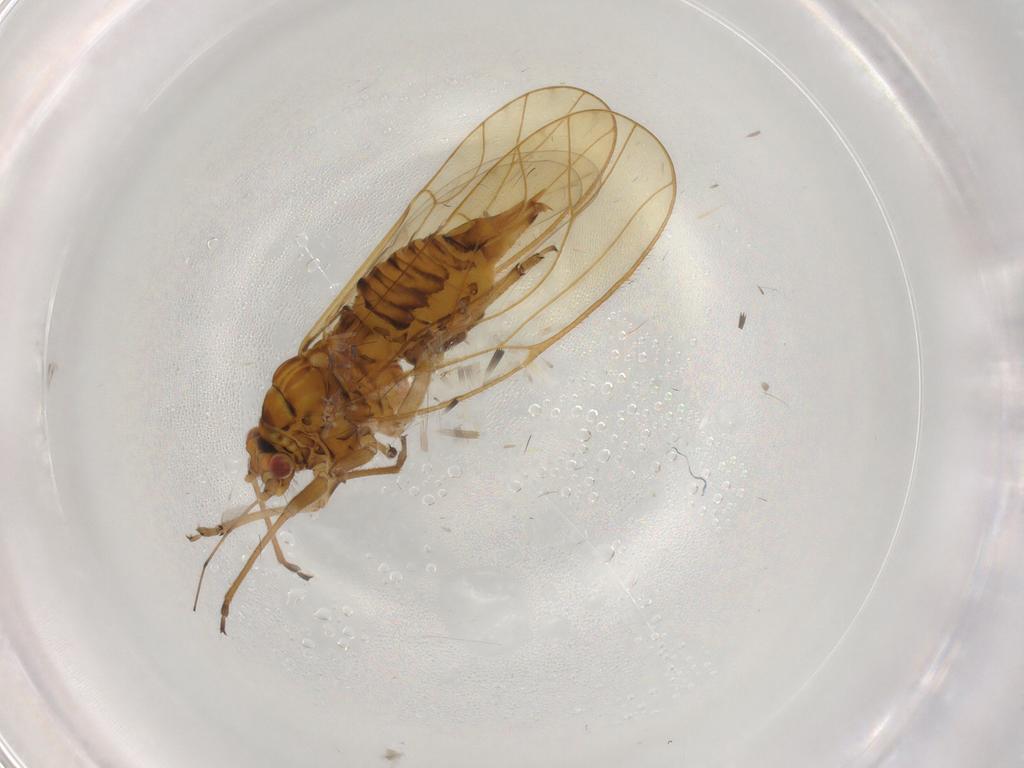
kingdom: Animalia
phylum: Arthropoda
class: Insecta
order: Hemiptera
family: Psyllidae
